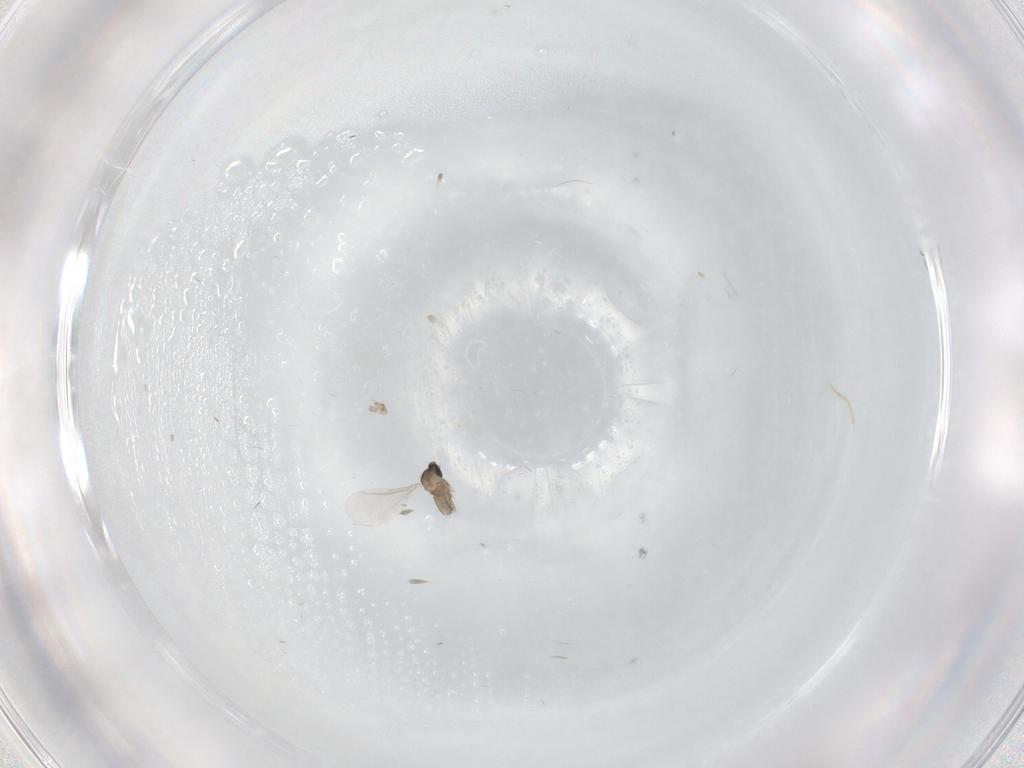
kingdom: Animalia
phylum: Arthropoda
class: Insecta
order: Diptera
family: Cecidomyiidae
